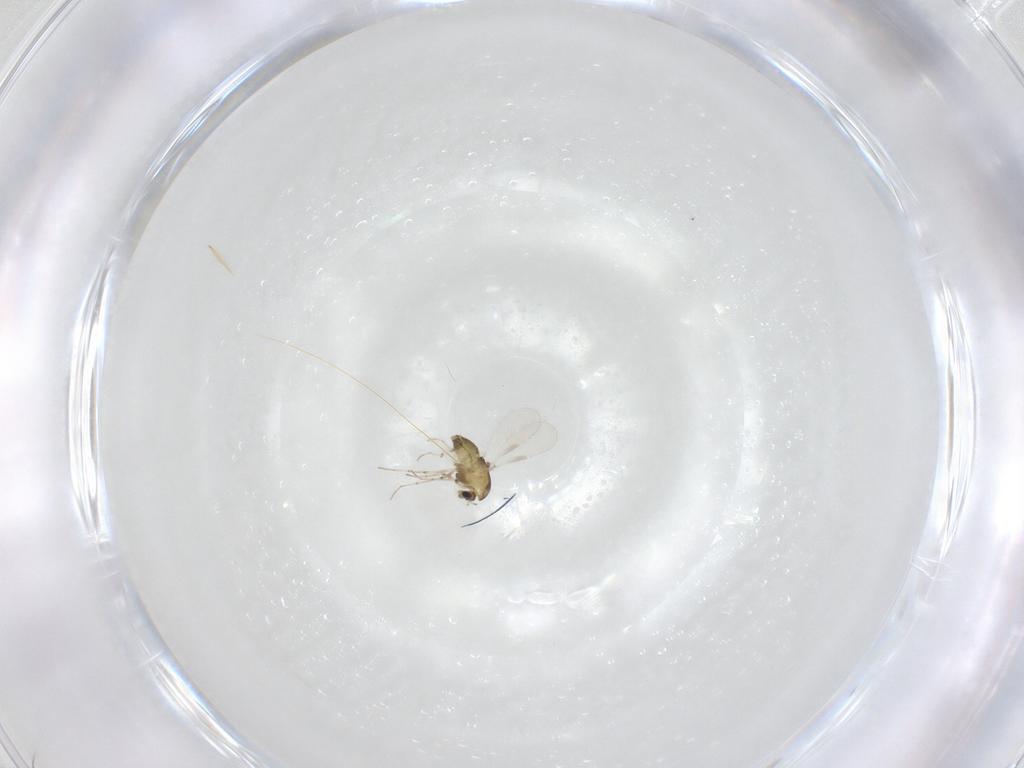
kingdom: Animalia
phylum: Arthropoda
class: Insecta
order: Diptera
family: Chironomidae
